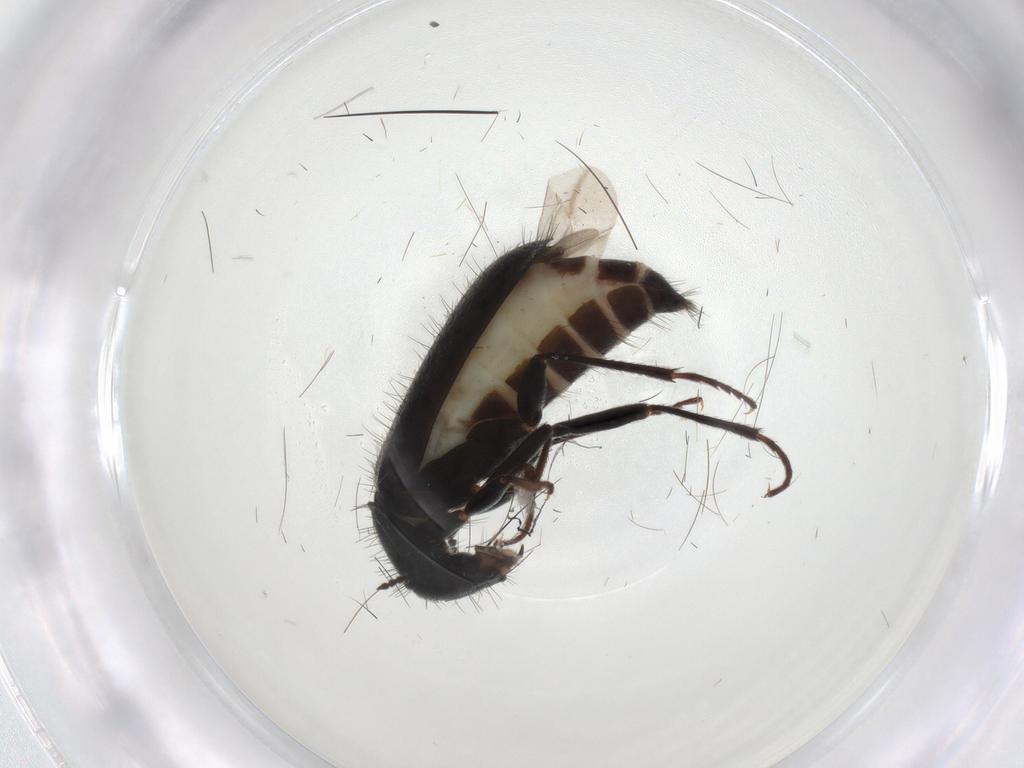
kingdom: Animalia
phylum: Arthropoda
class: Insecta
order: Coleoptera
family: Melyridae
